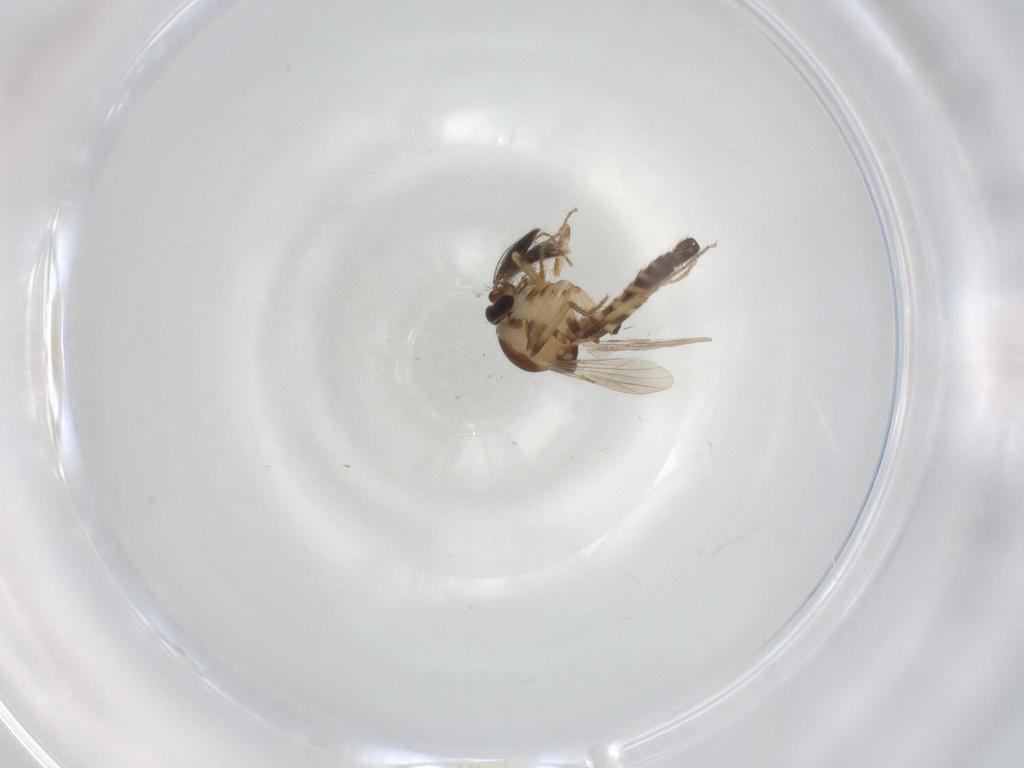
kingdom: Animalia
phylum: Arthropoda
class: Insecta
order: Diptera
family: Ceratopogonidae
